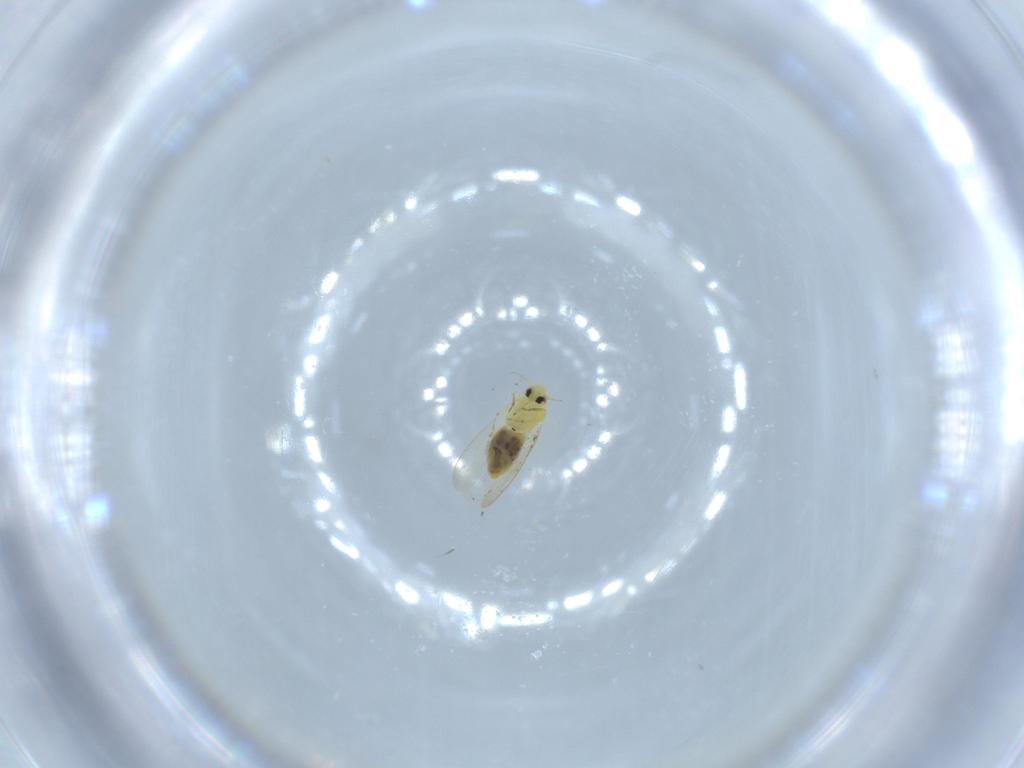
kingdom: Animalia
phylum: Arthropoda
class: Insecta
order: Hemiptera
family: Aleyrodidae
